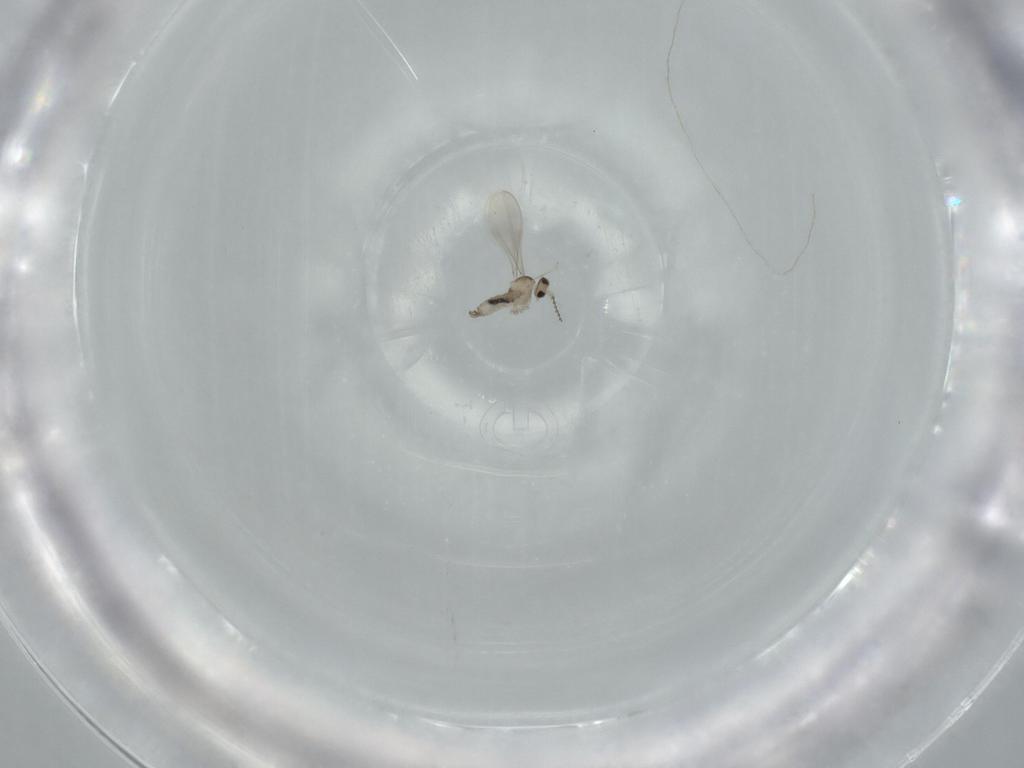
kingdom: Animalia
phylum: Arthropoda
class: Insecta
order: Diptera
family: Cecidomyiidae
